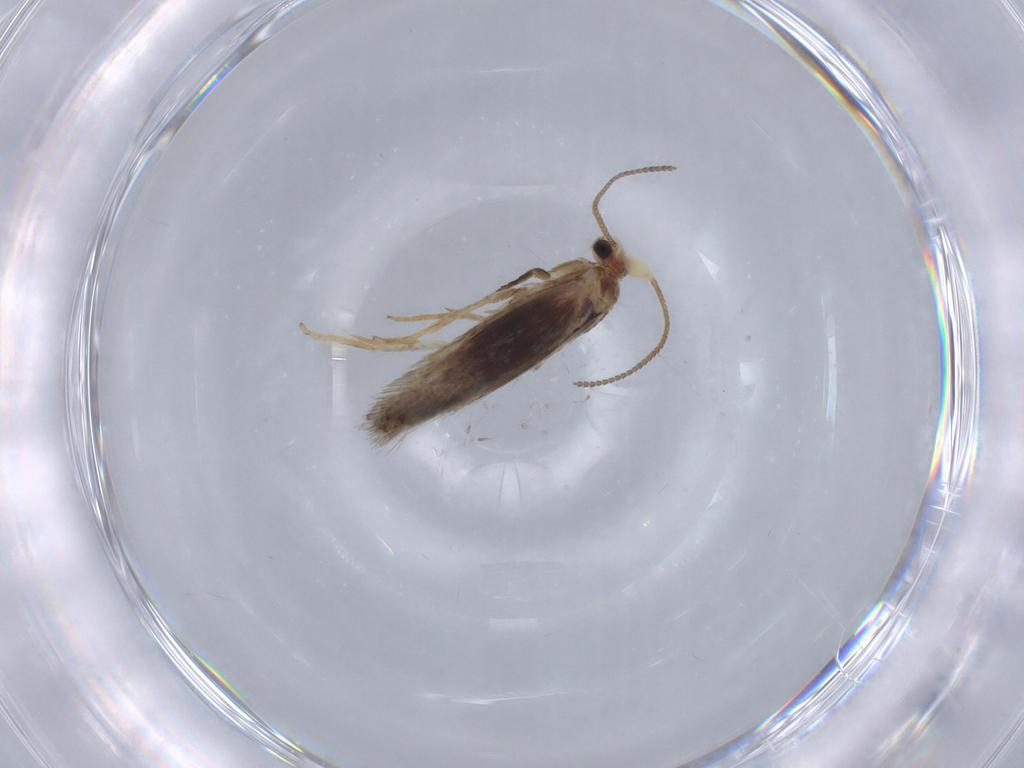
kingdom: Animalia
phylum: Arthropoda
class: Insecta
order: Lepidoptera
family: Nepticulidae
